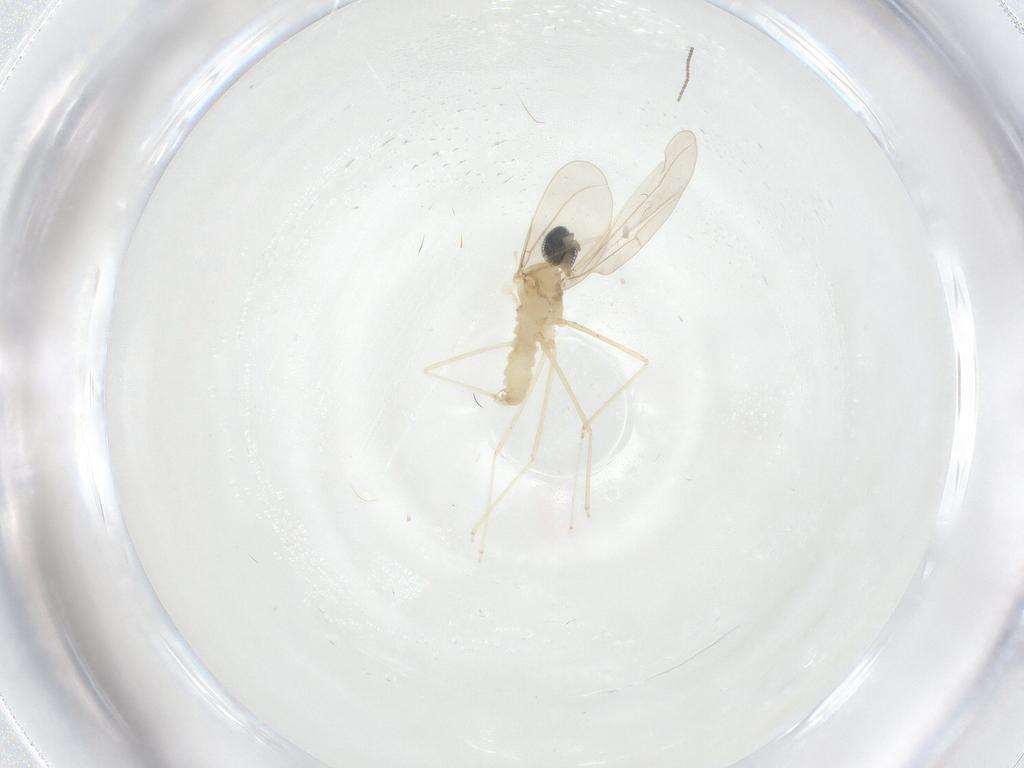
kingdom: Animalia
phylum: Arthropoda
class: Insecta
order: Diptera
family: Cecidomyiidae
